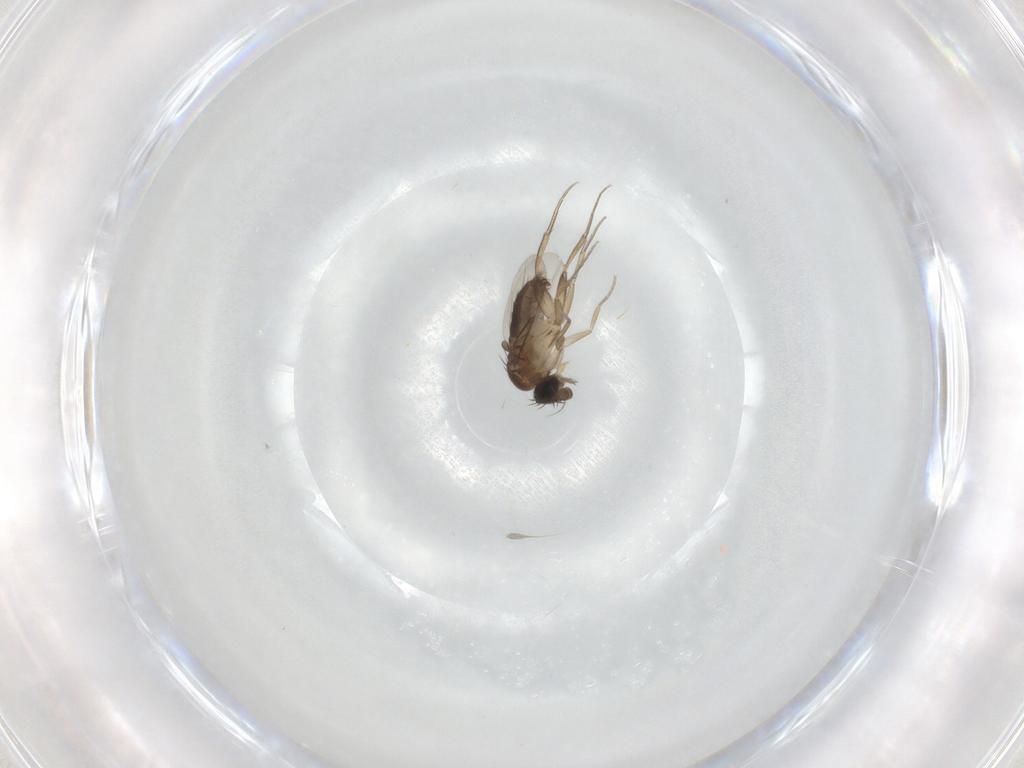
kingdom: Animalia
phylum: Arthropoda
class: Insecta
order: Diptera
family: Phoridae
